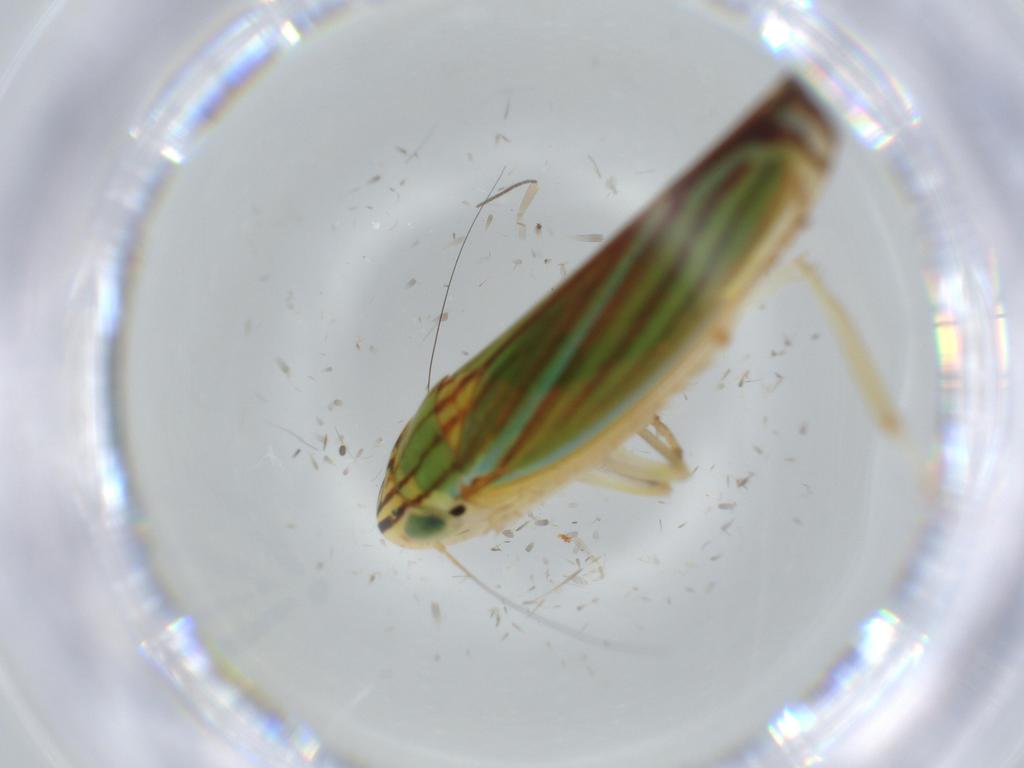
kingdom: Animalia
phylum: Arthropoda
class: Insecta
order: Hemiptera
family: Cicadellidae
